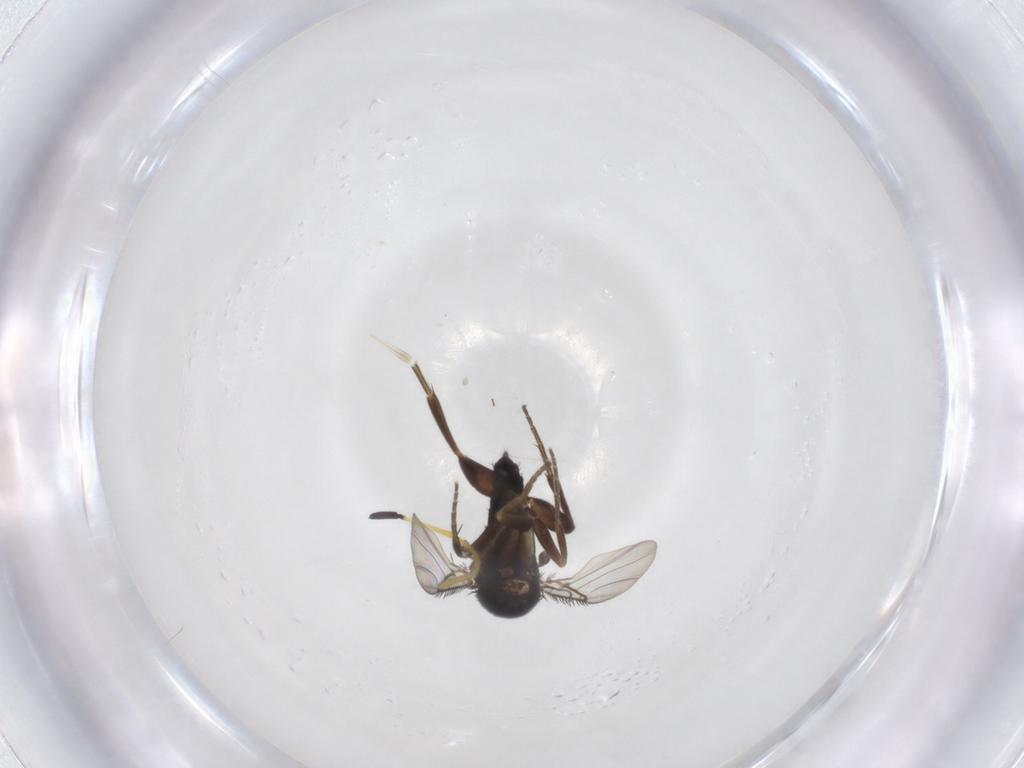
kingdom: Animalia
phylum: Arthropoda
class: Insecta
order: Diptera
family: Phoridae
